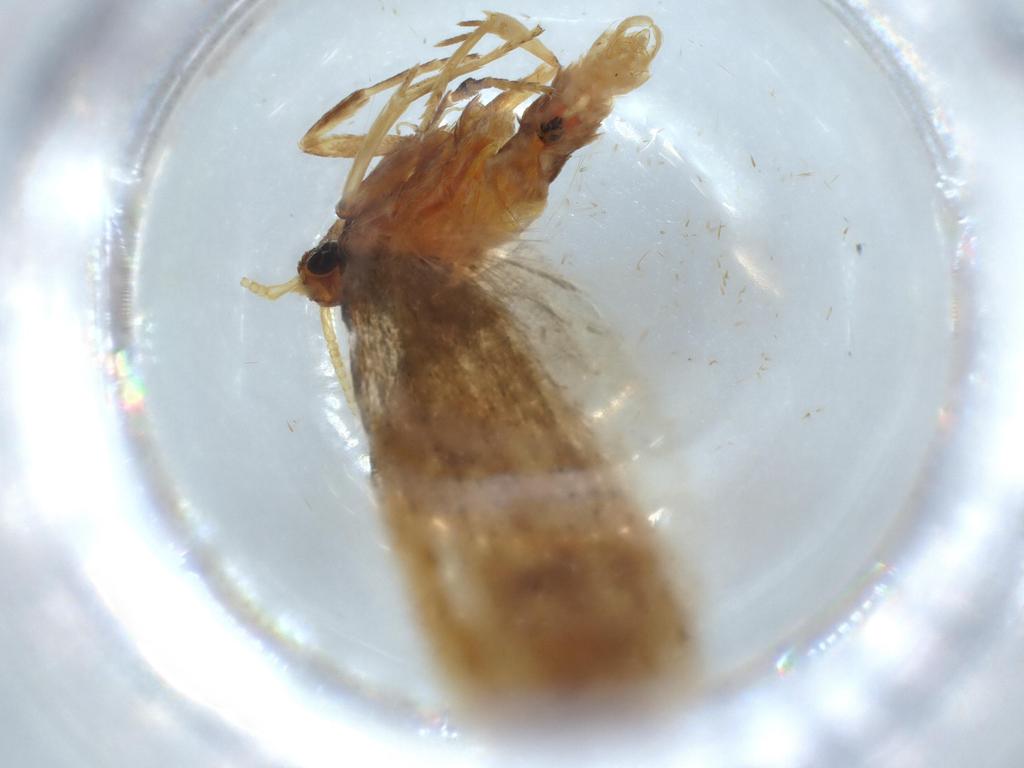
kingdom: Animalia
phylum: Arthropoda
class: Insecta
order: Lepidoptera
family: Lecithoceridae
